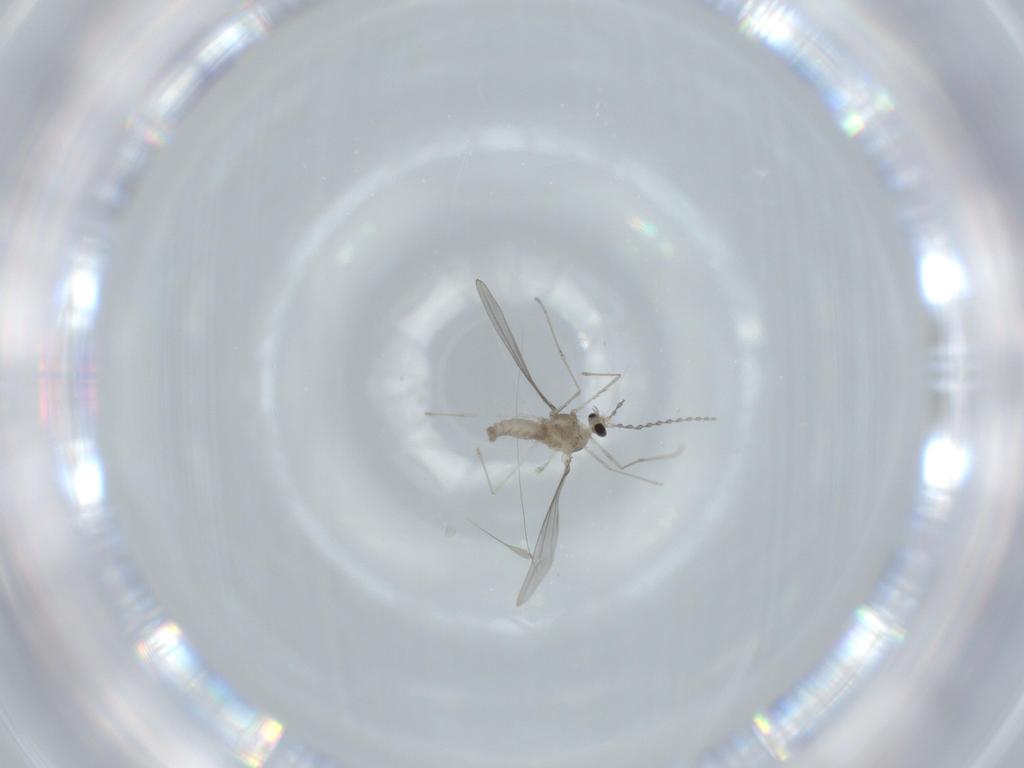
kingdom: Animalia
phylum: Arthropoda
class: Insecta
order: Diptera
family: Cecidomyiidae
